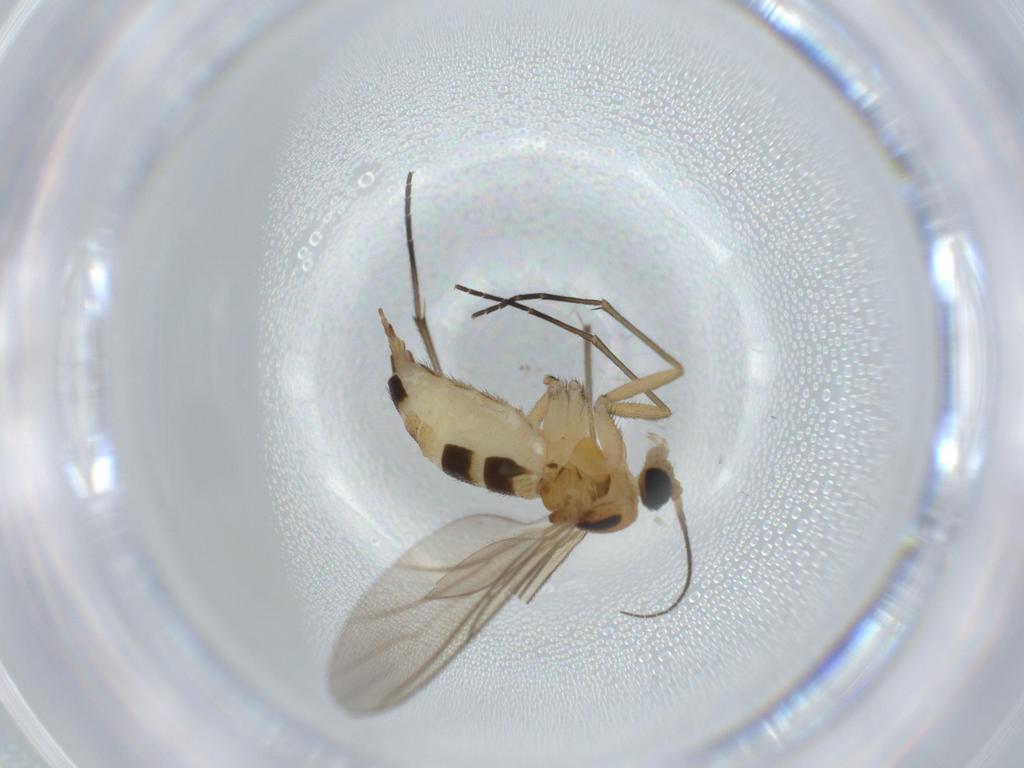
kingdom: Animalia
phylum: Arthropoda
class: Insecta
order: Diptera
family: Sciaridae
